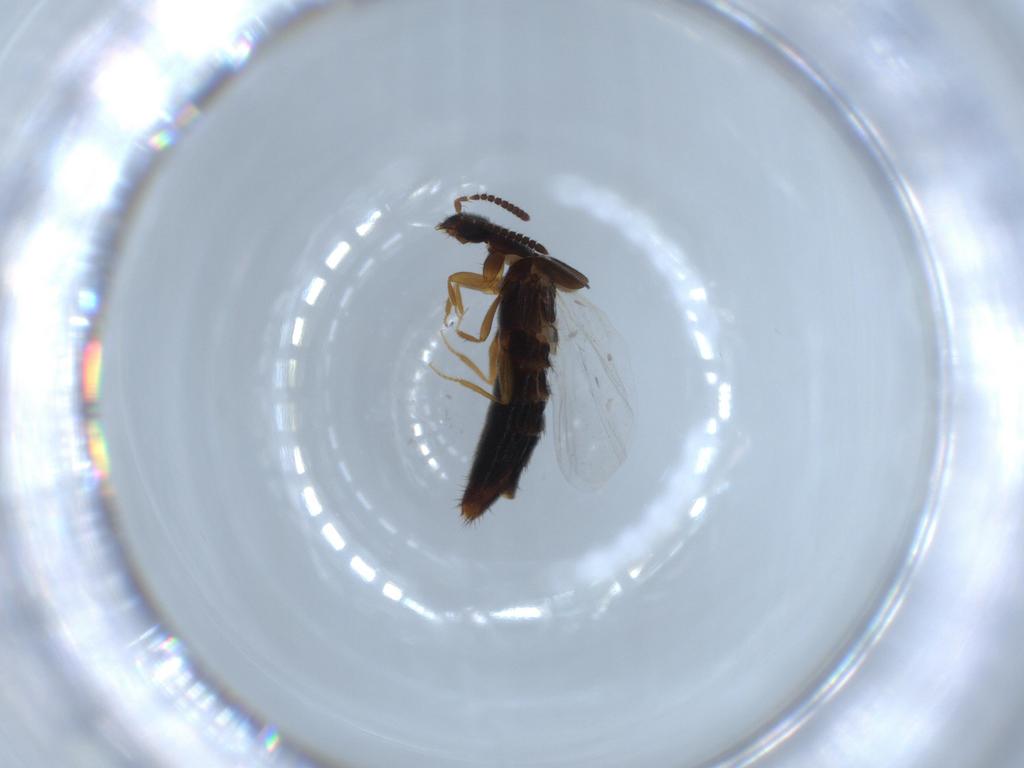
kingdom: Animalia
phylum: Arthropoda
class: Insecta
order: Coleoptera
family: Staphylinidae
